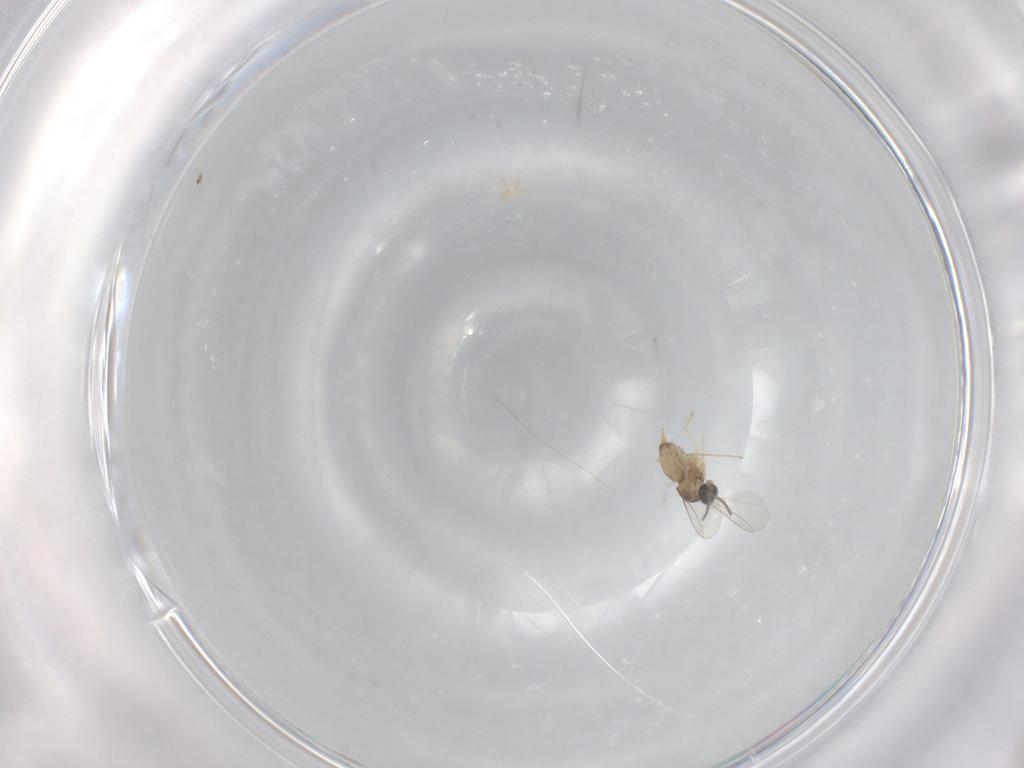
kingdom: Animalia
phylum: Arthropoda
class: Insecta
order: Diptera
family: Cecidomyiidae
